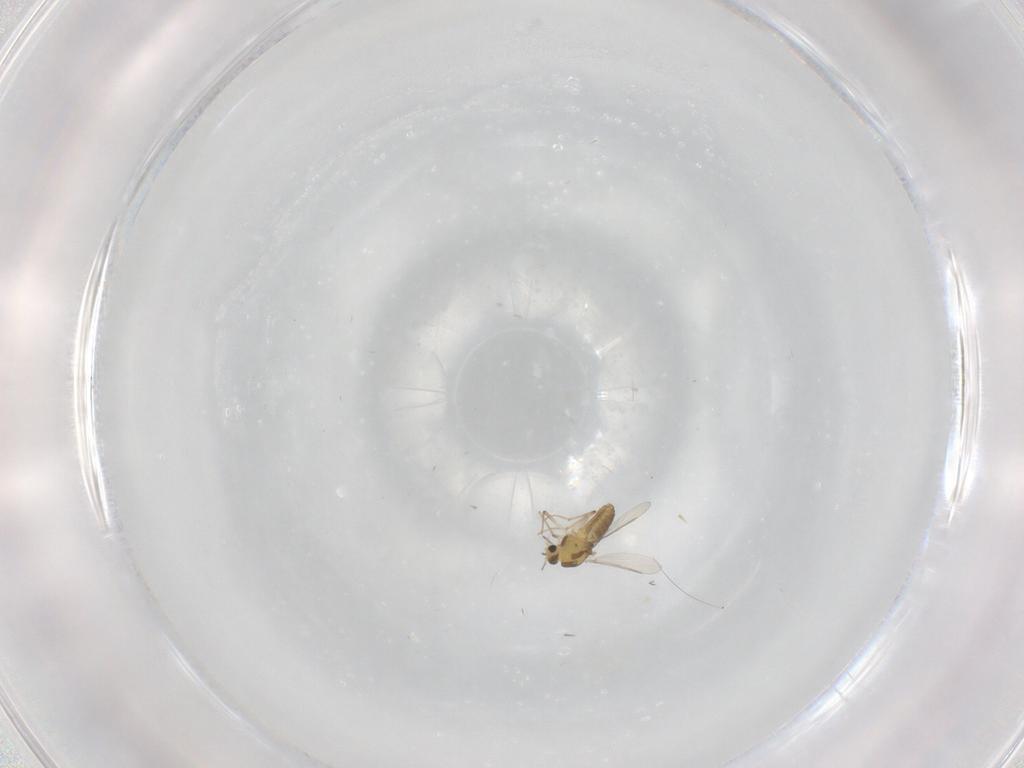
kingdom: Animalia
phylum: Arthropoda
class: Insecta
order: Diptera
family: Chironomidae
